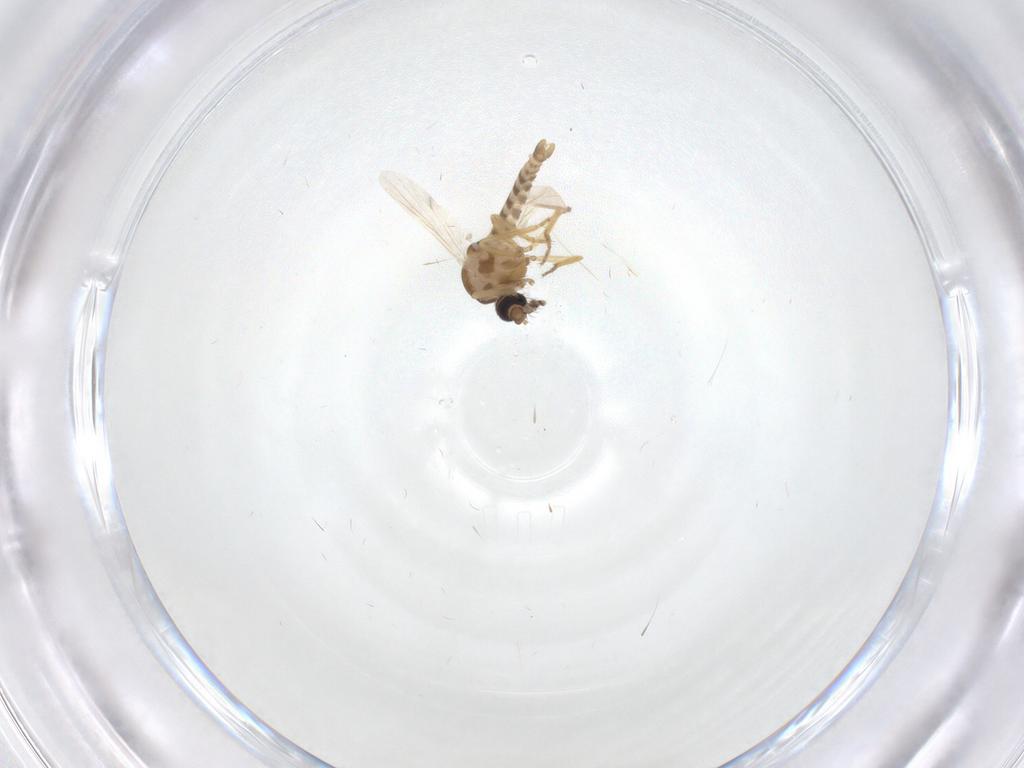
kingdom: Animalia
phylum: Arthropoda
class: Insecta
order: Diptera
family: Ceratopogonidae
